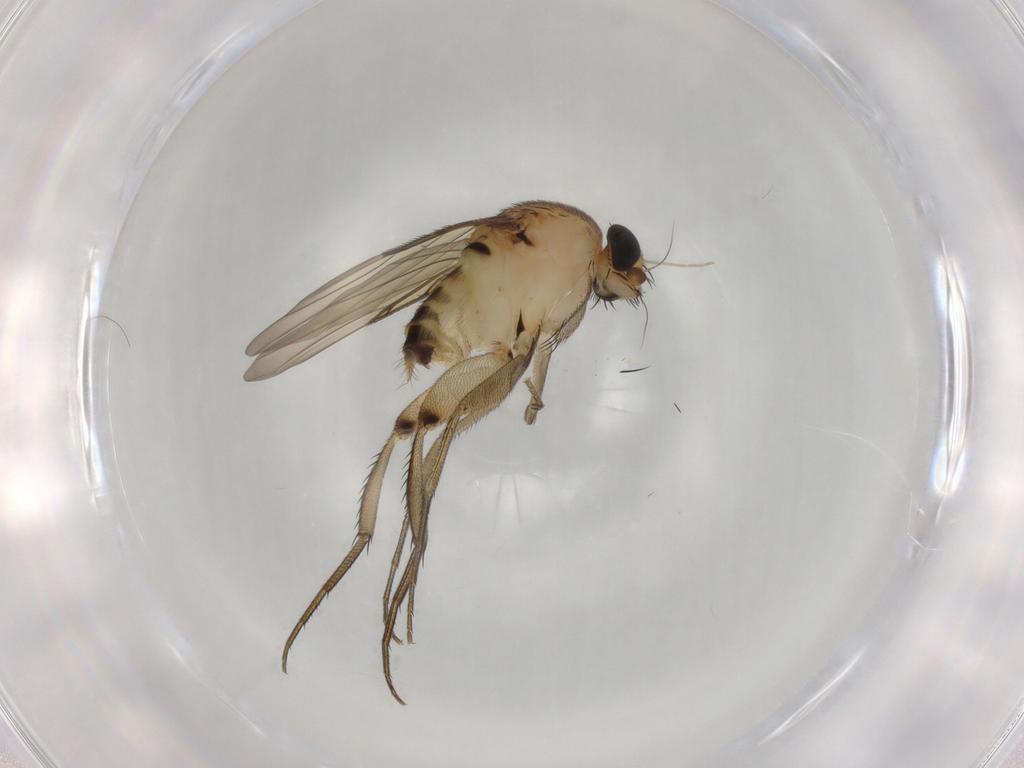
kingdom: Animalia
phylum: Arthropoda
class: Insecta
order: Diptera
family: Phoridae
